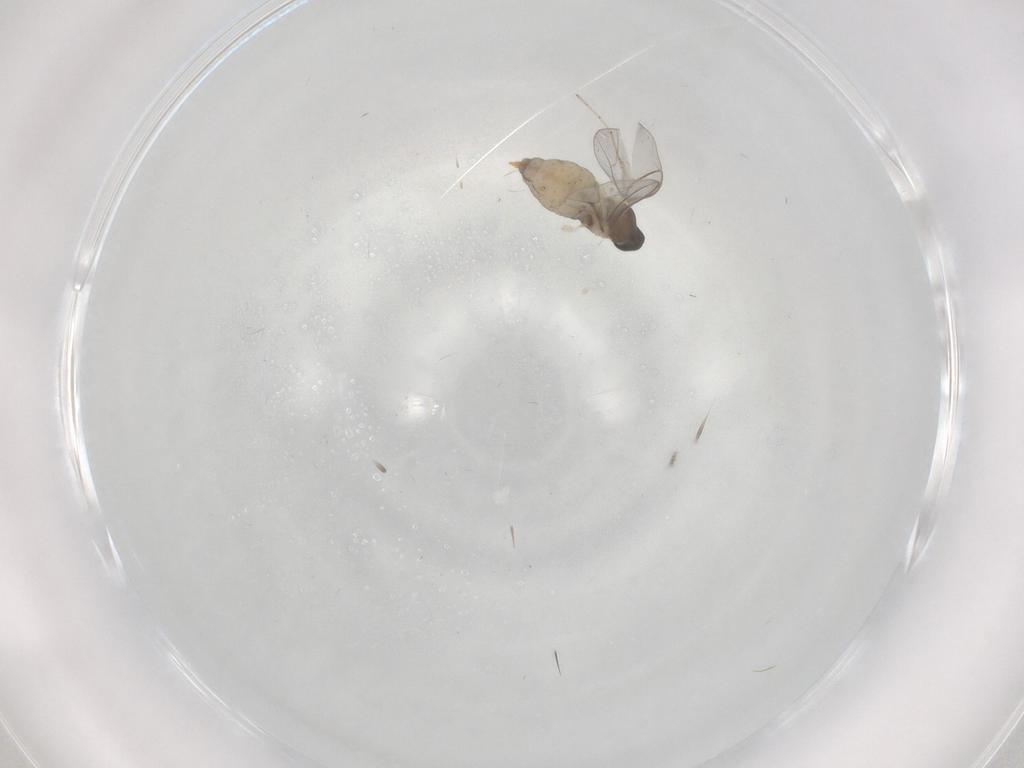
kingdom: Animalia
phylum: Arthropoda
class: Insecta
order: Diptera
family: Cecidomyiidae
